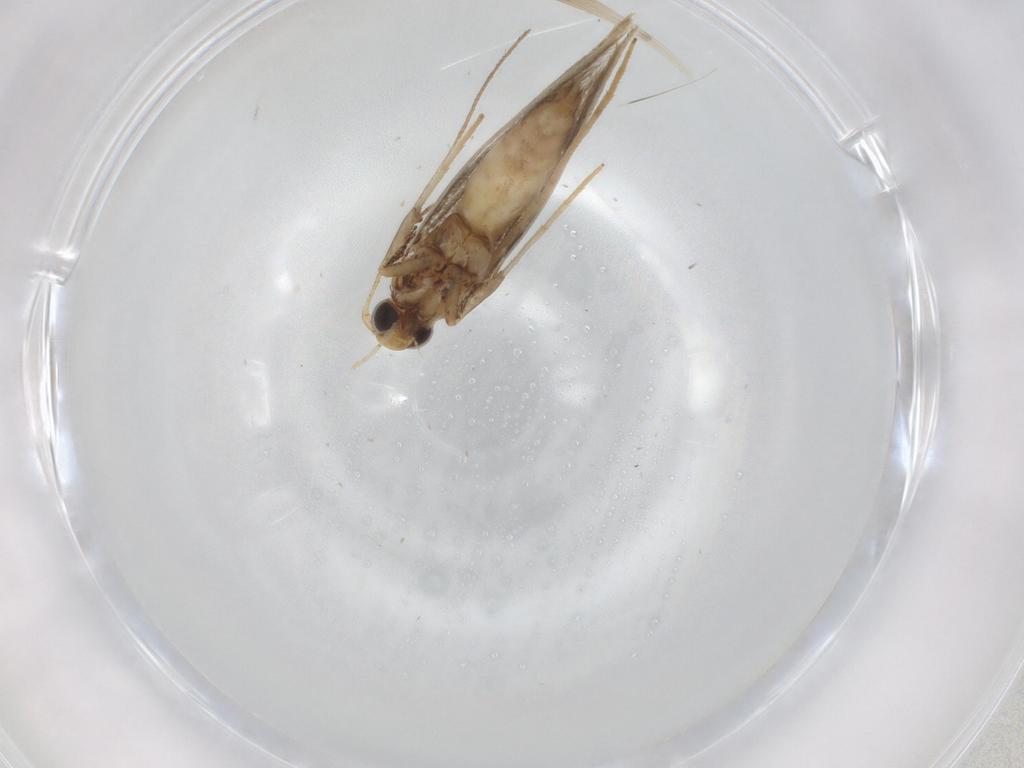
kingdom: Animalia
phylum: Arthropoda
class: Insecta
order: Lepidoptera
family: Gracillariidae
